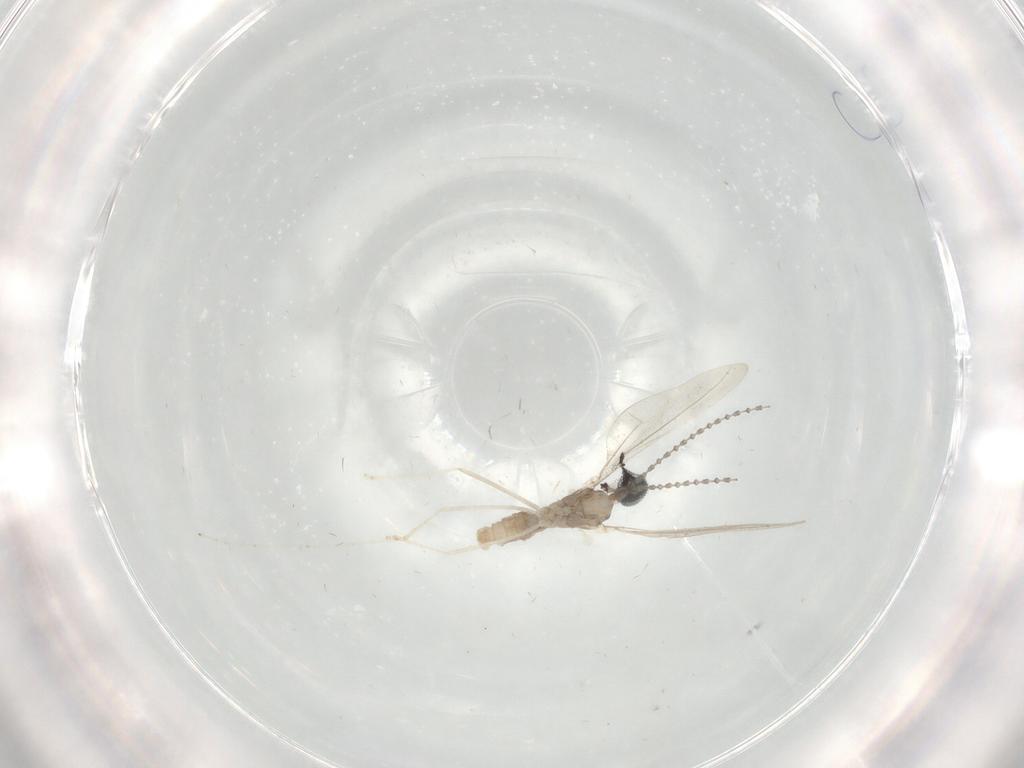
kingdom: Animalia
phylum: Arthropoda
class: Insecta
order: Diptera
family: Cecidomyiidae
